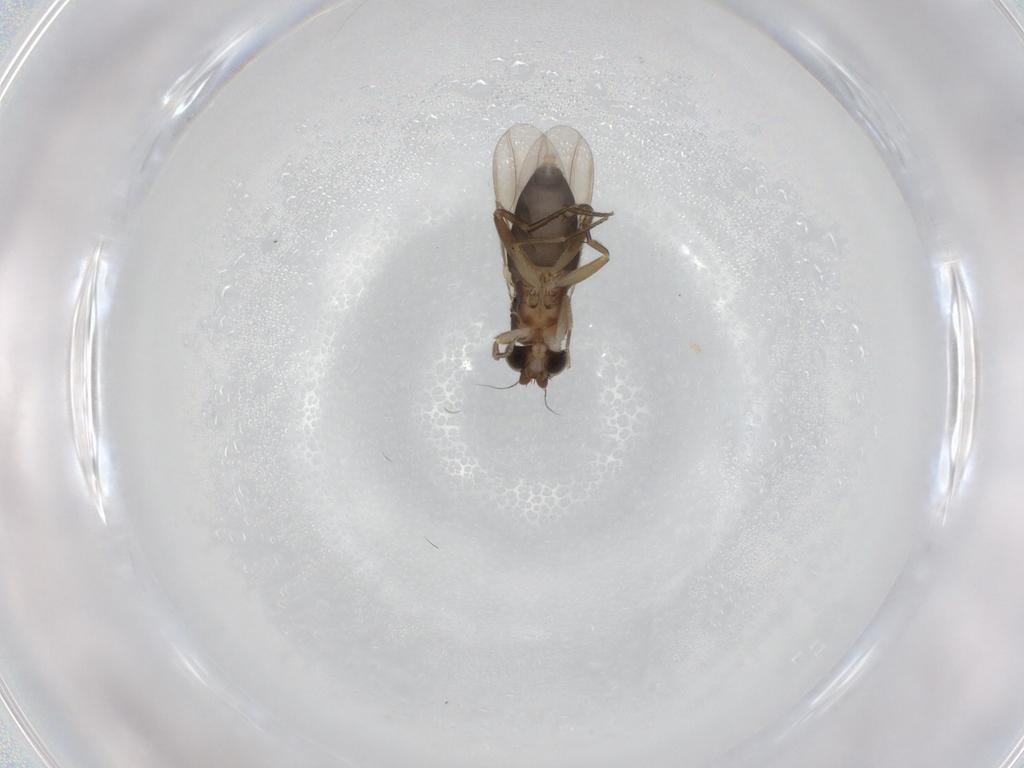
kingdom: Animalia
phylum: Arthropoda
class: Insecta
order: Diptera
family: Phoridae
